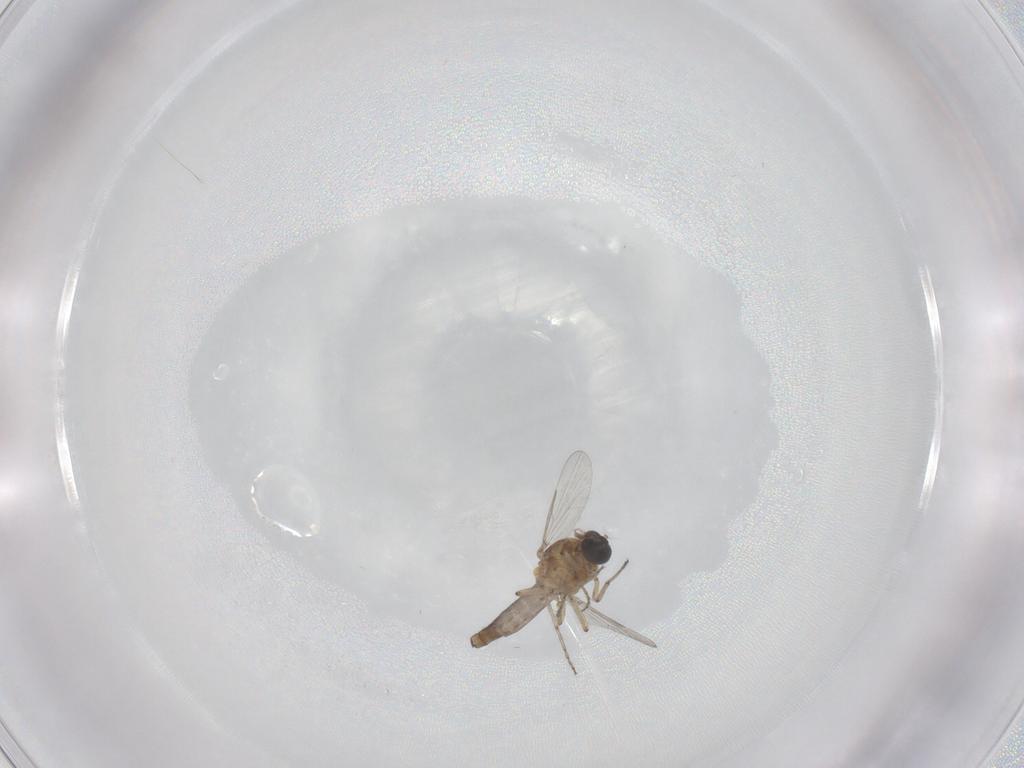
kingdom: Animalia
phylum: Arthropoda
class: Insecta
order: Diptera
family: Ceratopogonidae
